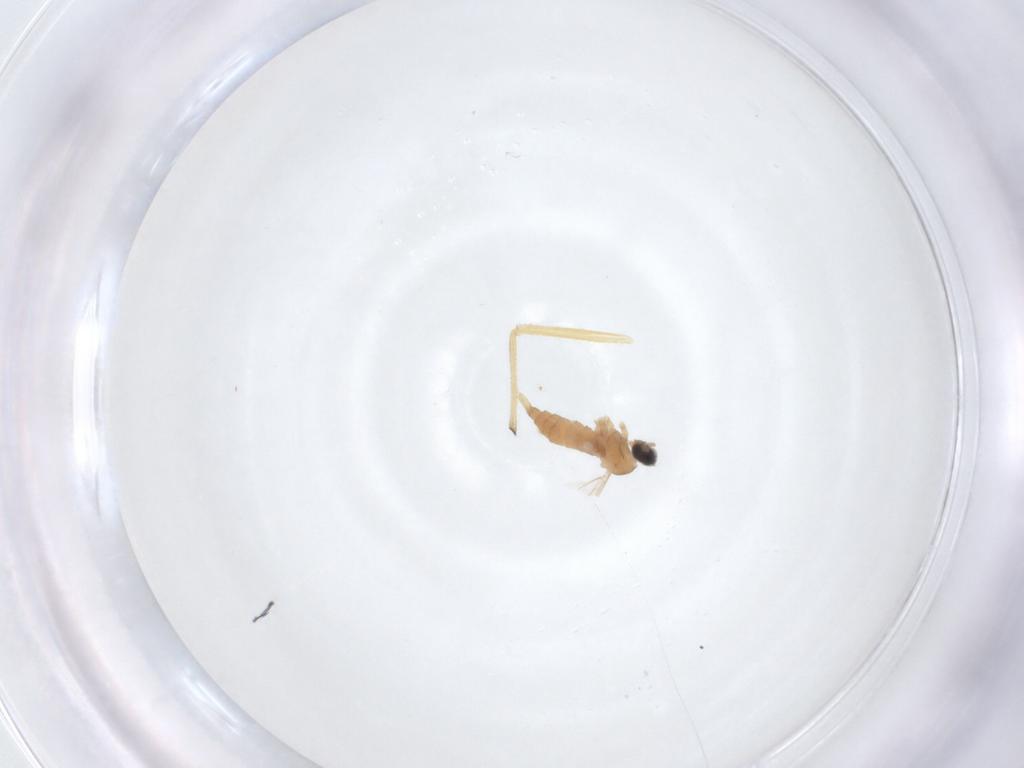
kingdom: Animalia
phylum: Arthropoda
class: Insecta
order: Diptera
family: Cecidomyiidae
